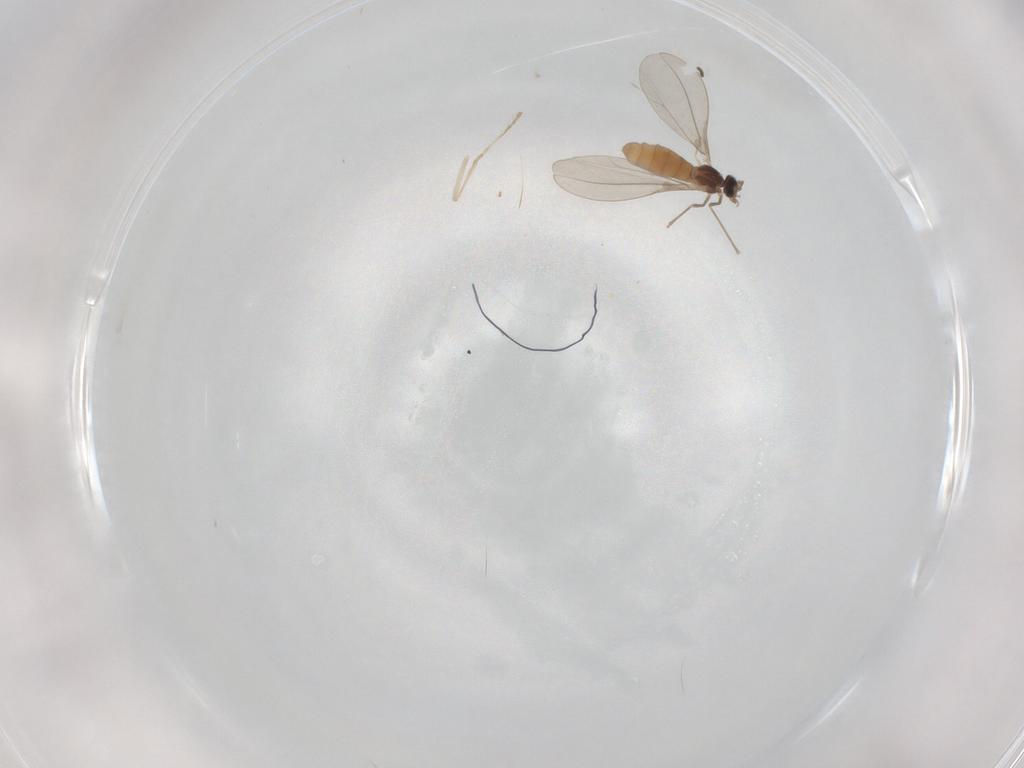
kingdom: Animalia
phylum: Arthropoda
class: Insecta
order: Diptera
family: Cecidomyiidae
